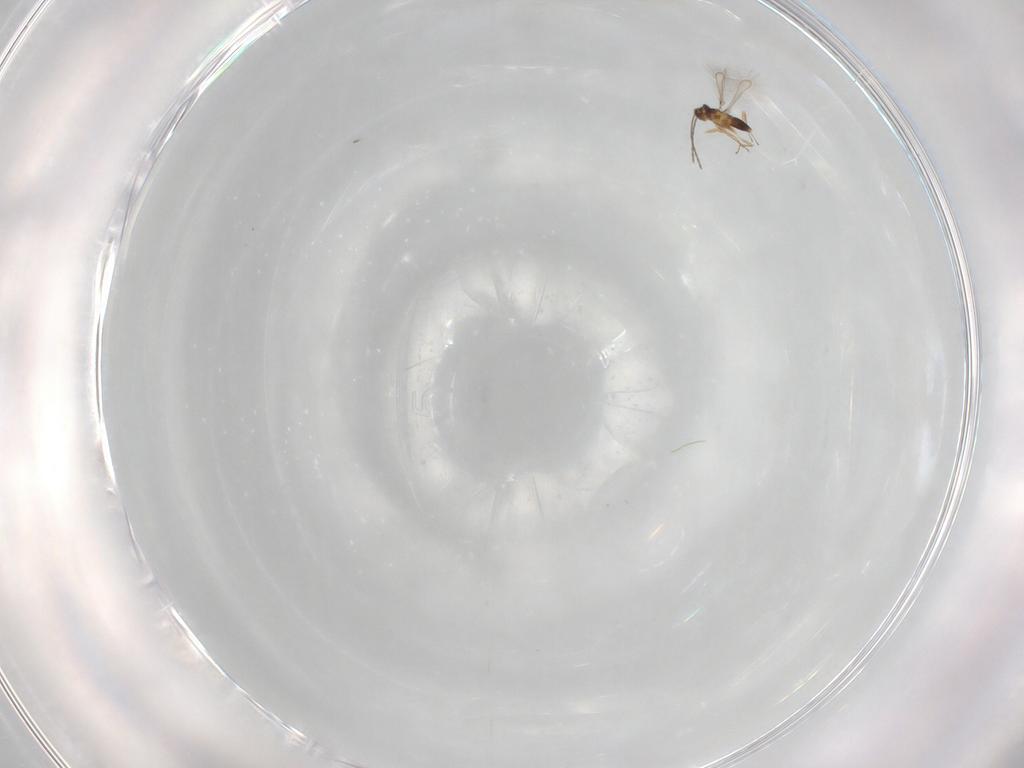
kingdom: Animalia
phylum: Arthropoda
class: Insecta
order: Hymenoptera
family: Mymaridae
